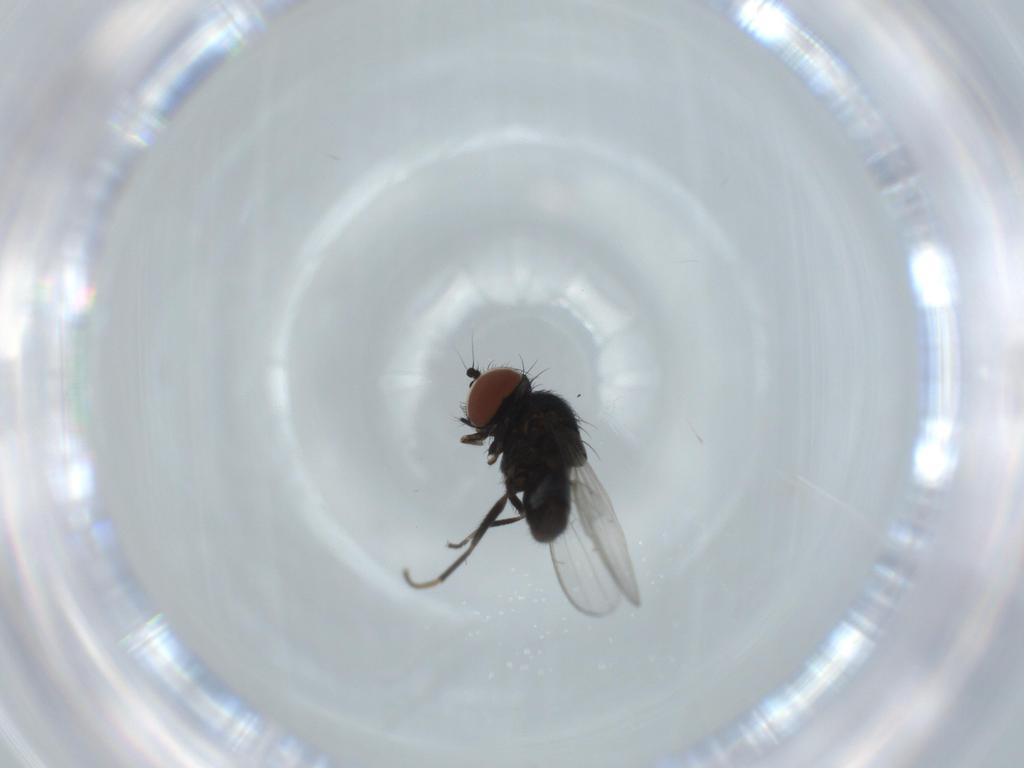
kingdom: Animalia
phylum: Arthropoda
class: Insecta
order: Diptera
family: Milichiidae
